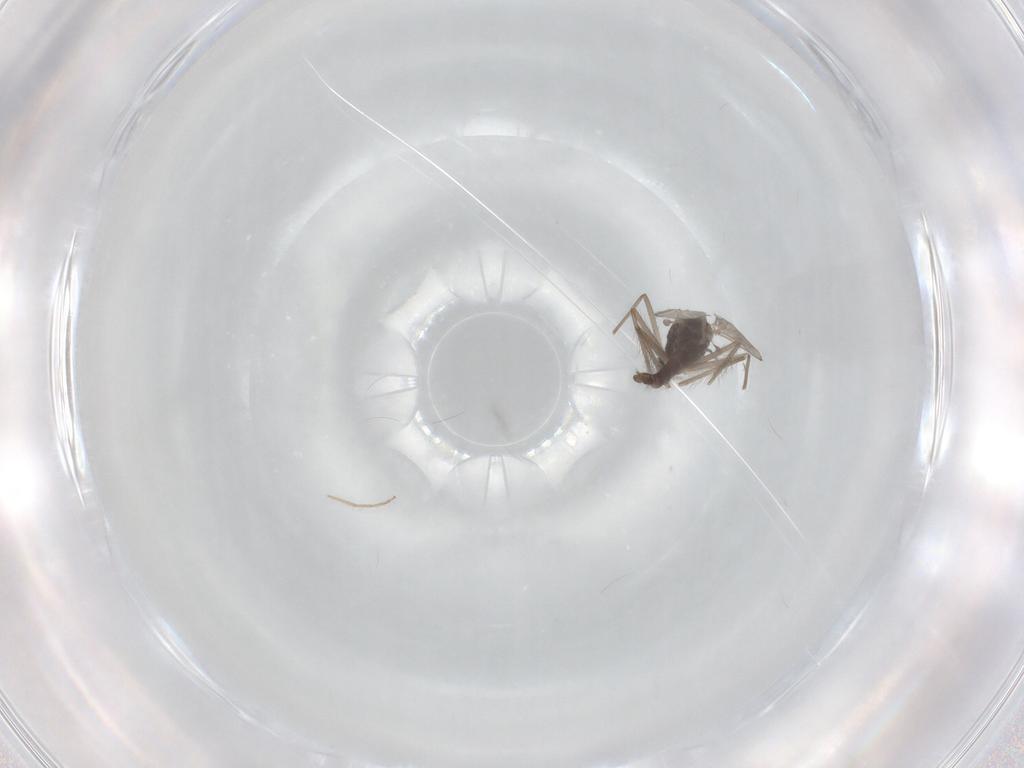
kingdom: Animalia
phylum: Arthropoda
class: Insecta
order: Diptera
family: Chironomidae
